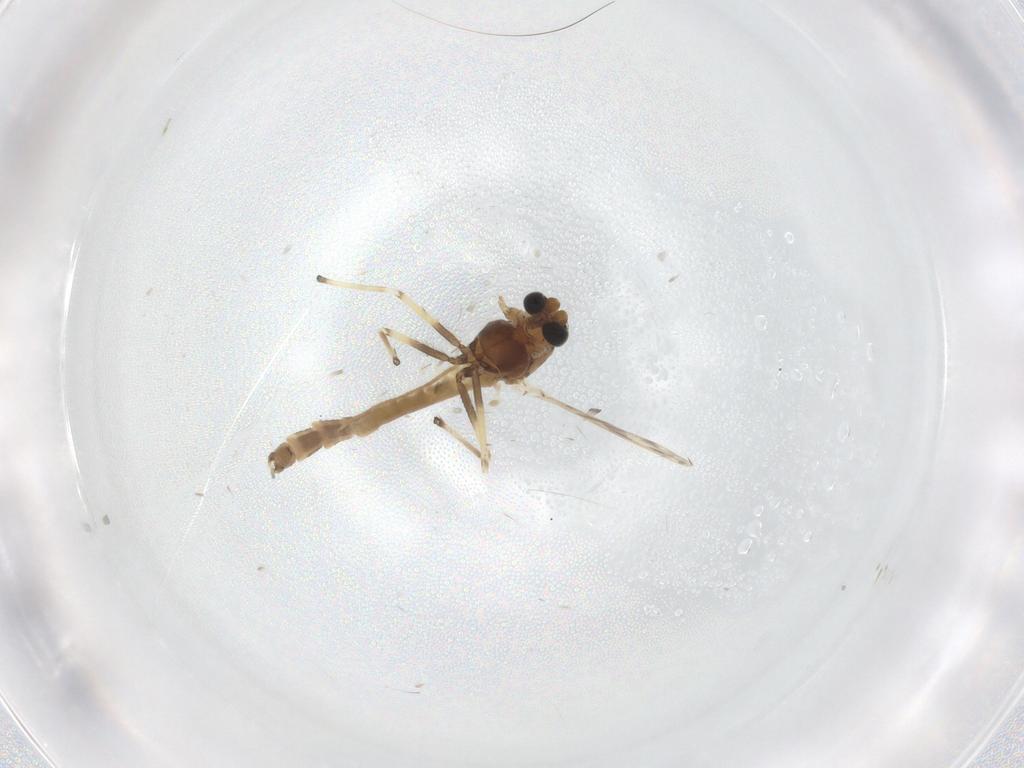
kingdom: Animalia
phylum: Arthropoda
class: Insecta
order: Diptera
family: Chironomidae
